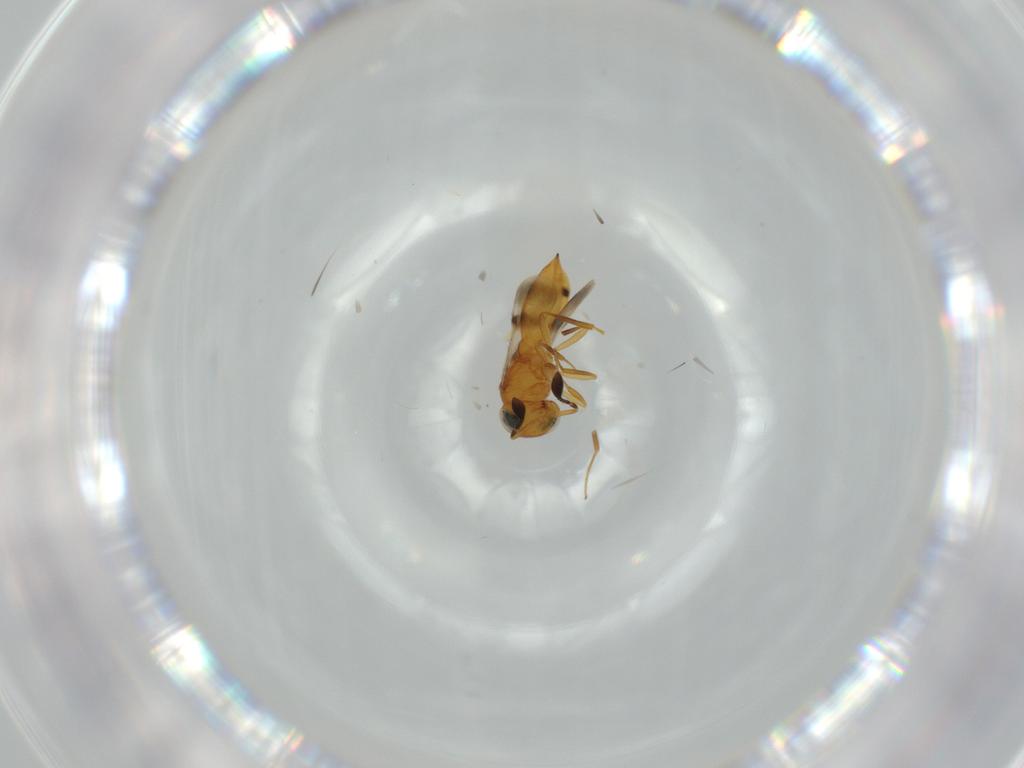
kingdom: Animalia
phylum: Arthropoda
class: Insecta
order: Hymenoptera
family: Scelionidae
